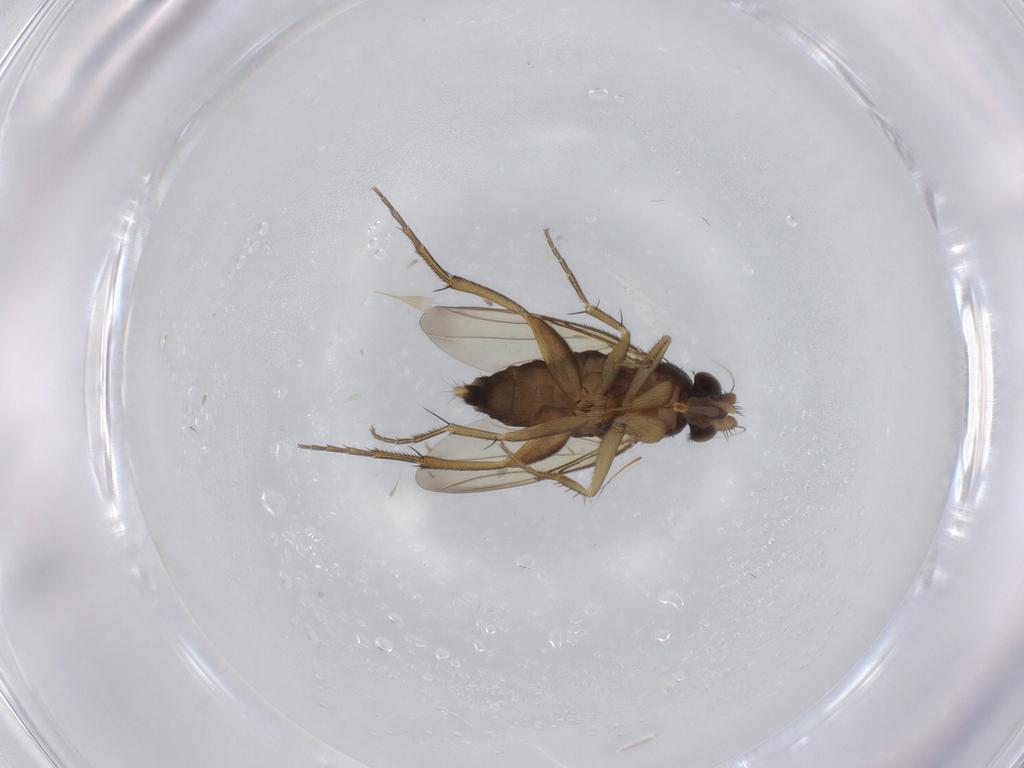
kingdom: Animalia
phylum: Arthropoda
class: Insecta
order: Diptera
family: Phoridae
